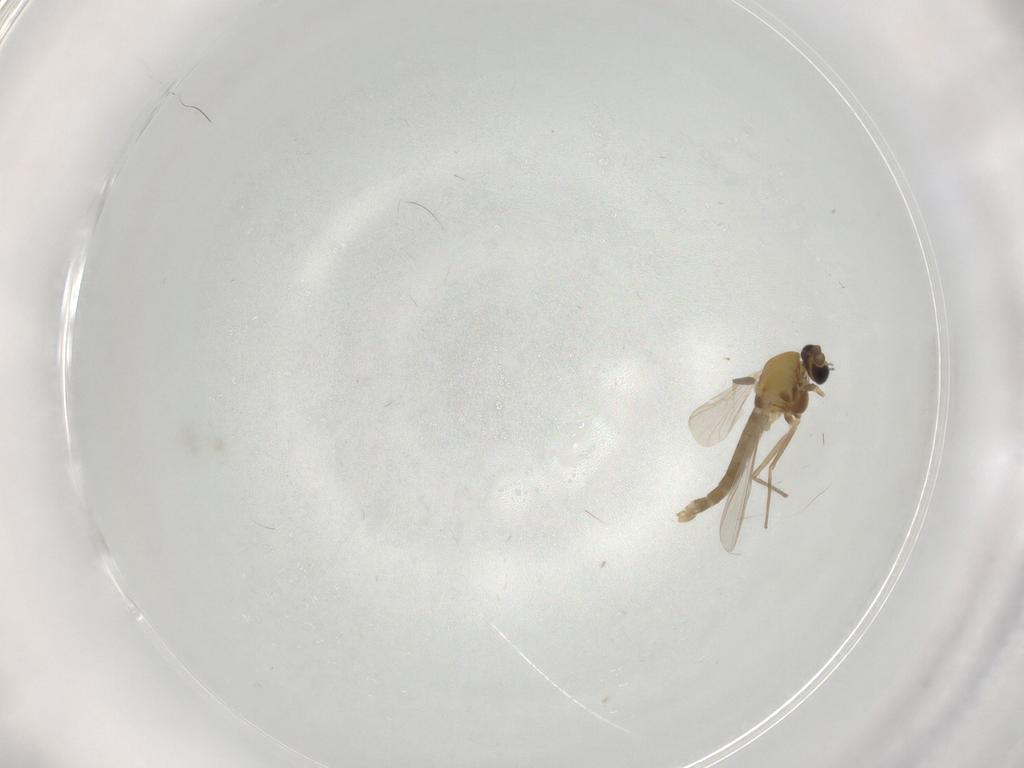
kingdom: Animalia
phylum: Arthropoda
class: Insecta
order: Diptera
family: Chironomidae
